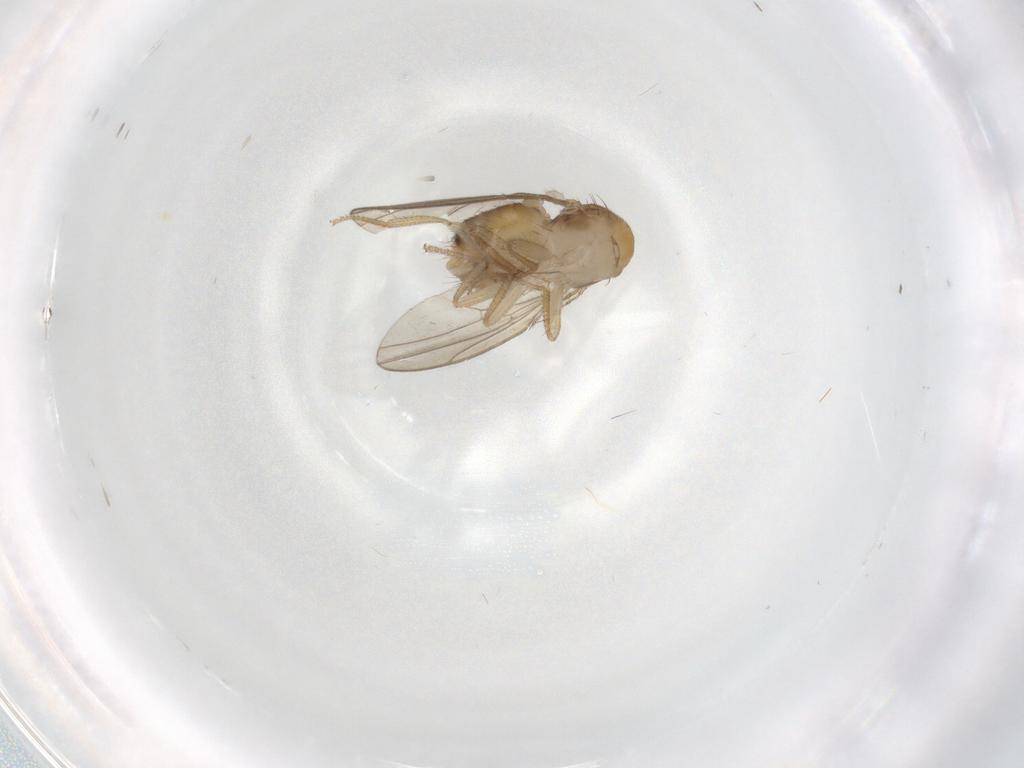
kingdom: Animalia
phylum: Arthropoda
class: Insecta
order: Diptera
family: Drosophilidae
